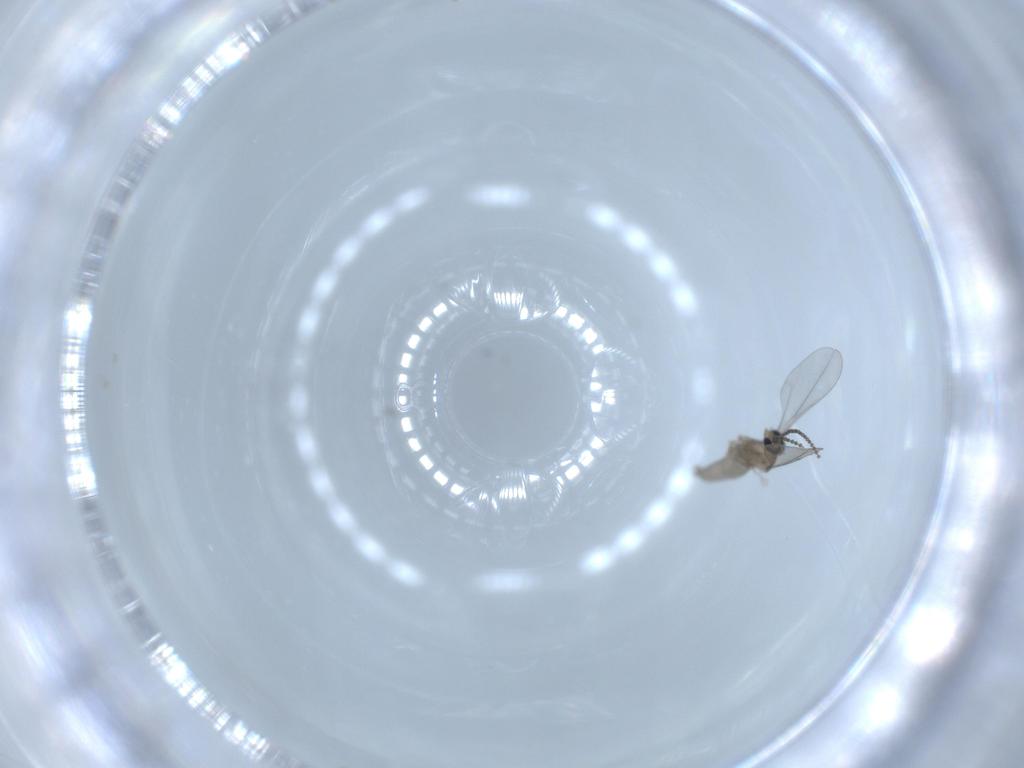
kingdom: Animalia
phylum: Arthropoda
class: Insecta
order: Diptera
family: Cecidomyiidae
